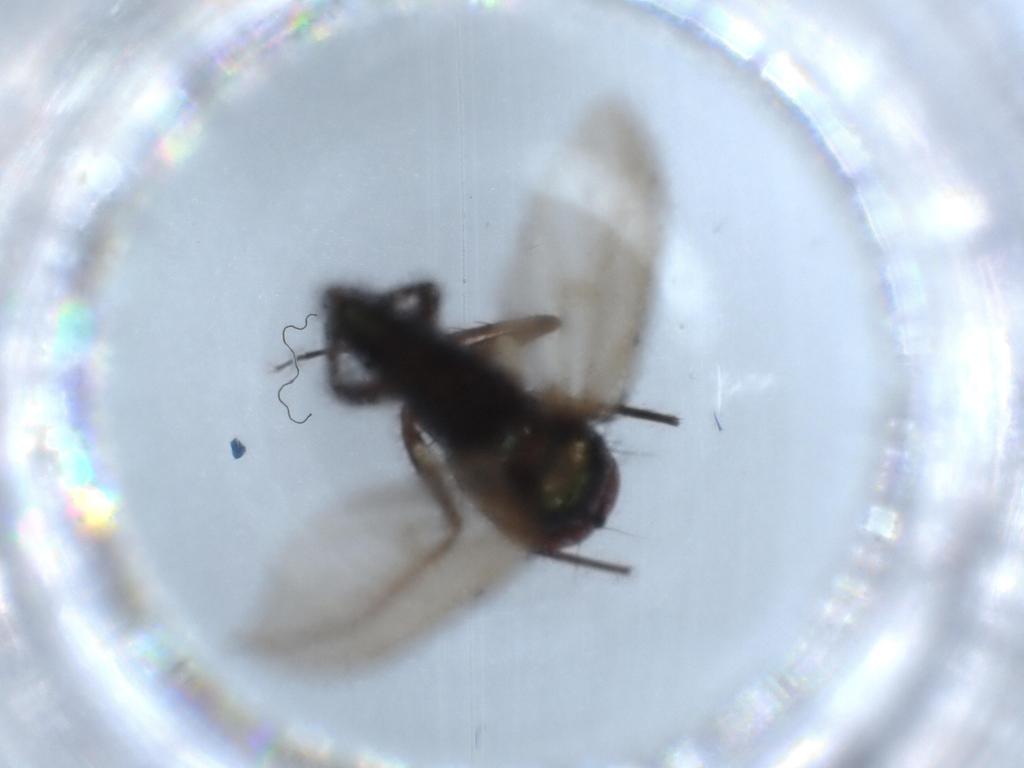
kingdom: Animalia
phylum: Arthropoda
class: Insecta
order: Diptera
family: Dolichopodidae
